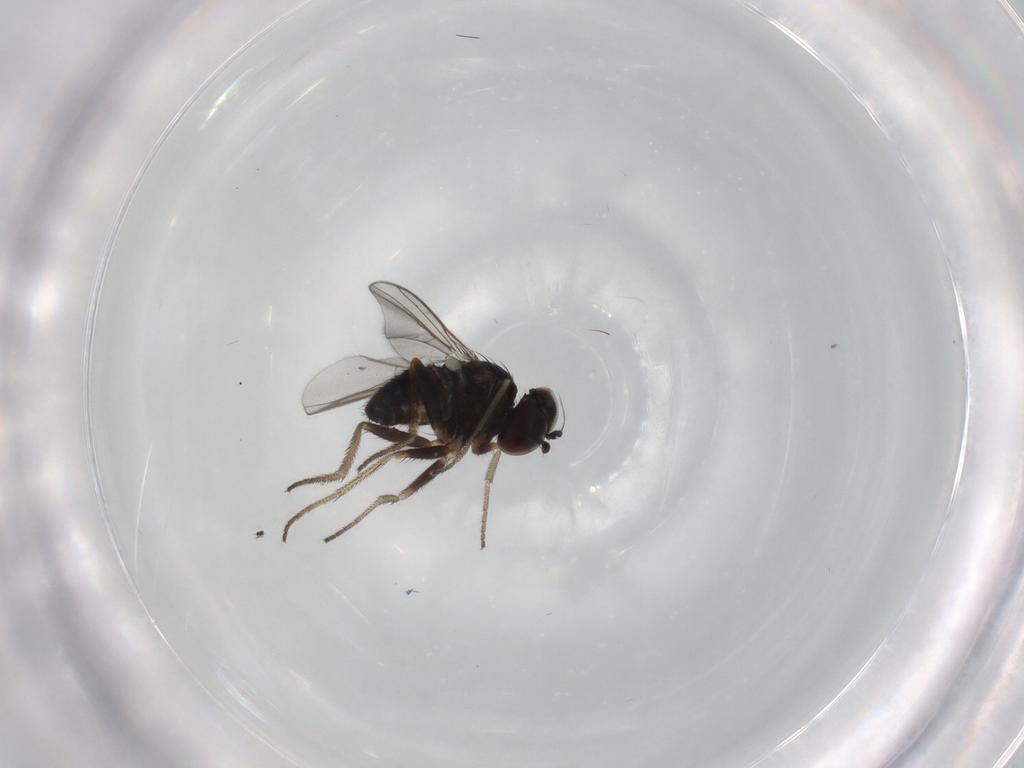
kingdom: Animalia
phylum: Arthropoda
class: Insecta
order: Diptera
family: Dolichopodidae
